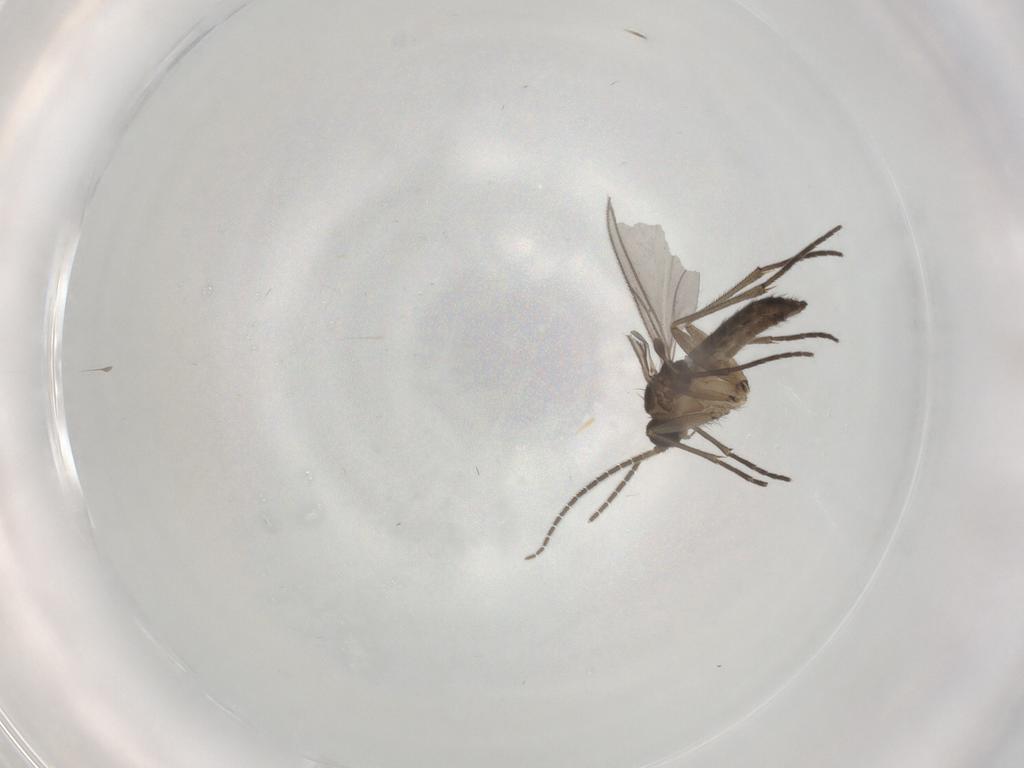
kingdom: Animalia
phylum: Arthropoda
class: Insecta
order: Diptera
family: Sciaridae
